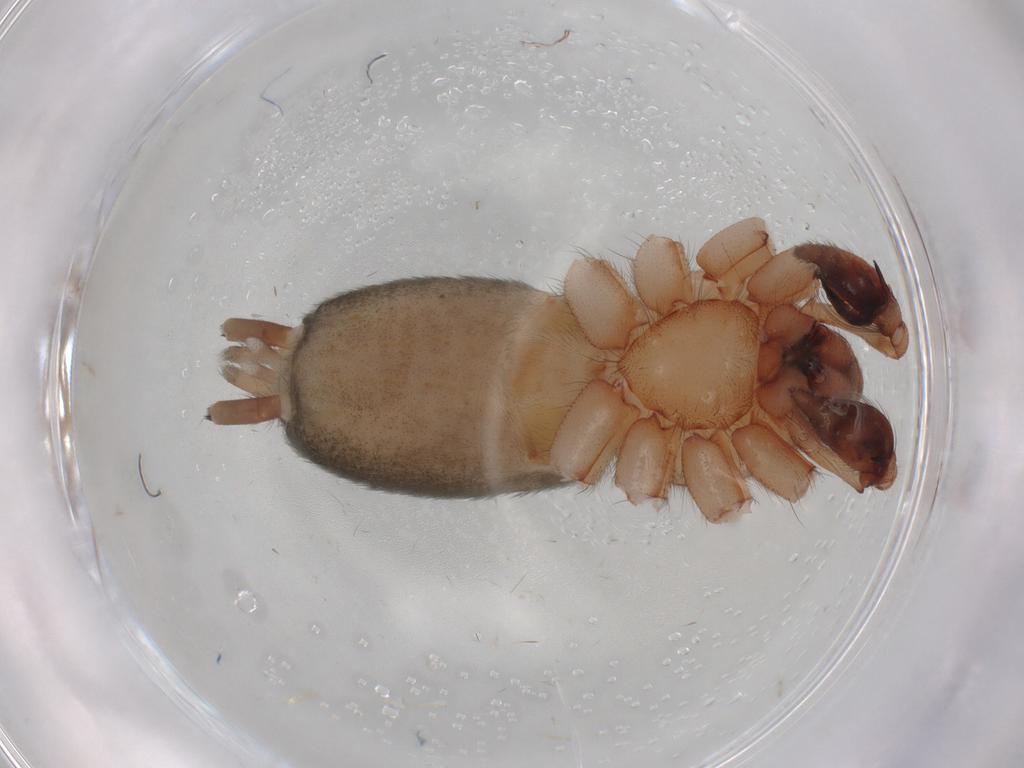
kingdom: Animalia
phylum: Arthropoda
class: Arachnida
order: Araneae
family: Gnaphosidae
